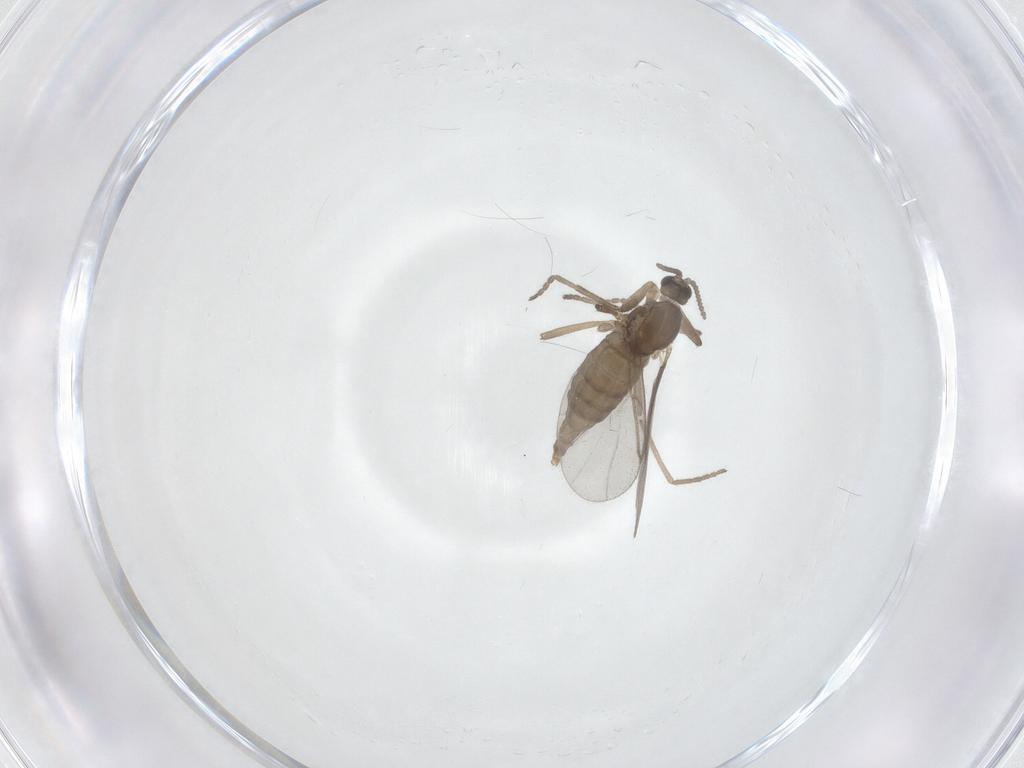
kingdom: Animalia
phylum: Arthropoda
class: Insecta
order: Diptera
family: Cecidomyiidae
